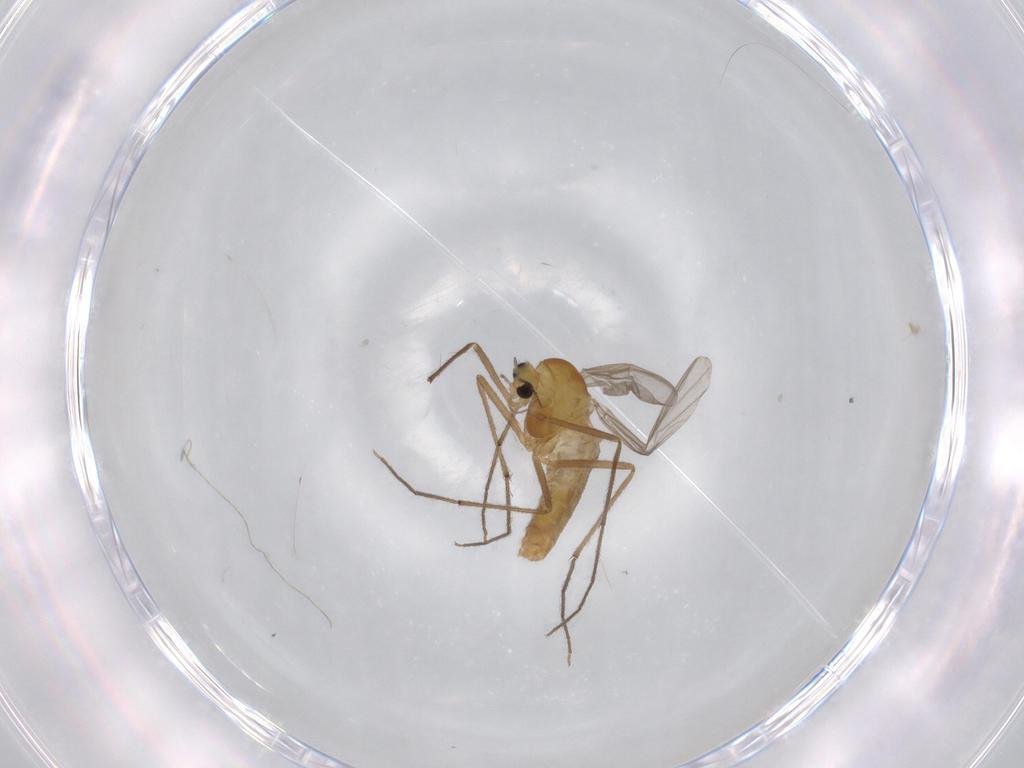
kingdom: Animalia
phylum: Arthropoda
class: Insecta
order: Diptera
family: Chironomidae
